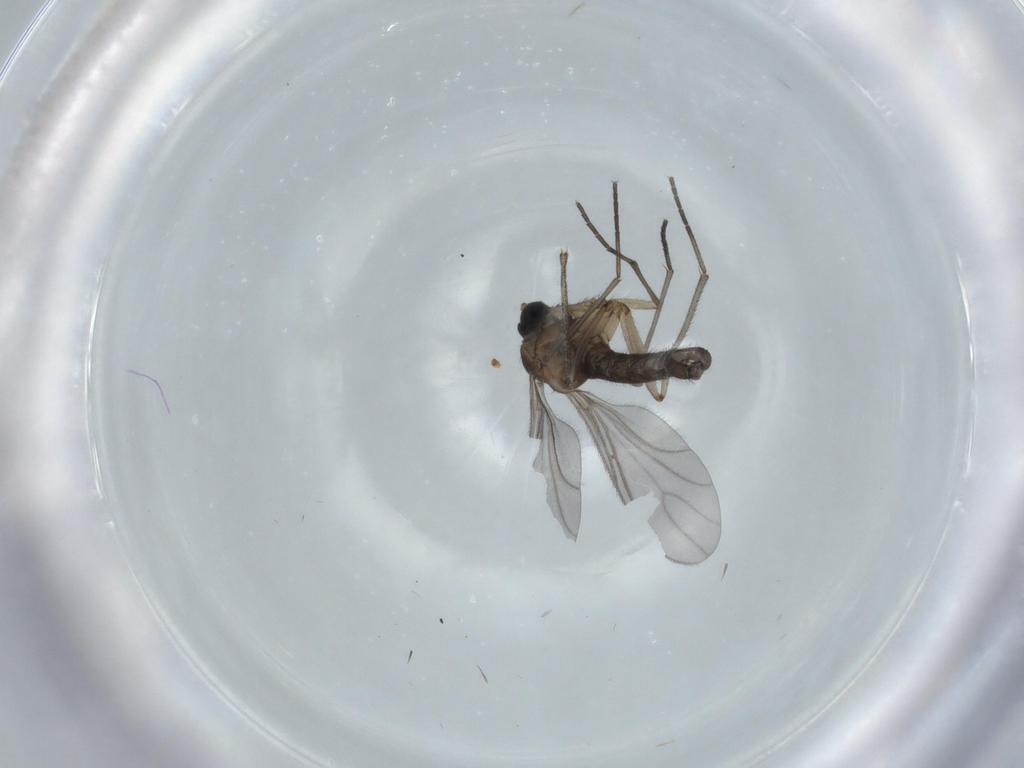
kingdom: Animalia
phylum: Arthropoda
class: Insecta
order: Diptera
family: Sciaridae
